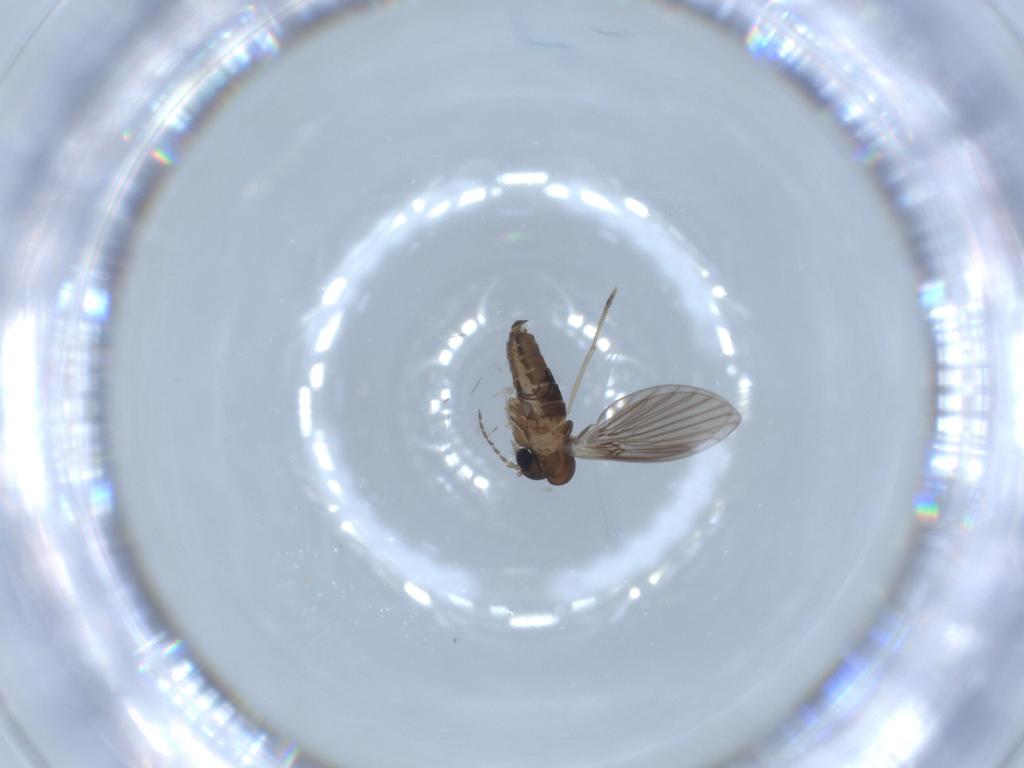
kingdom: Animalia
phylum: Arthropoda
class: Insecta
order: Diptera
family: Psychodidae
